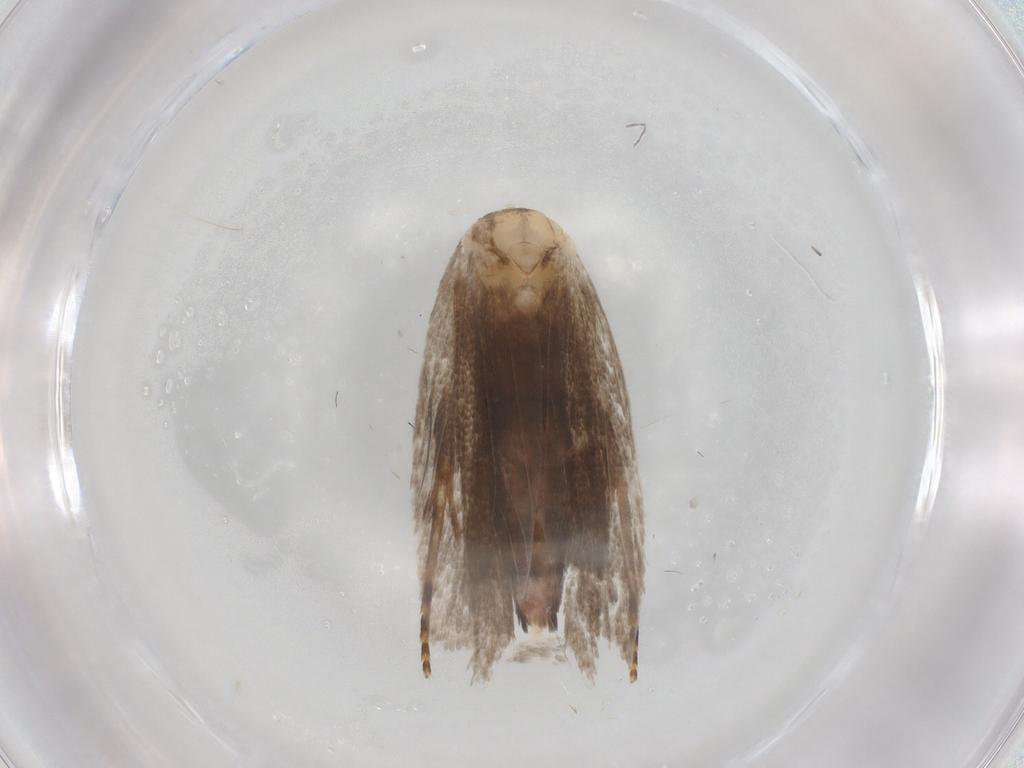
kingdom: Animalia
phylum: Arthropoda
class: Insecta
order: Lepidoptera
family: Gelechiidae
